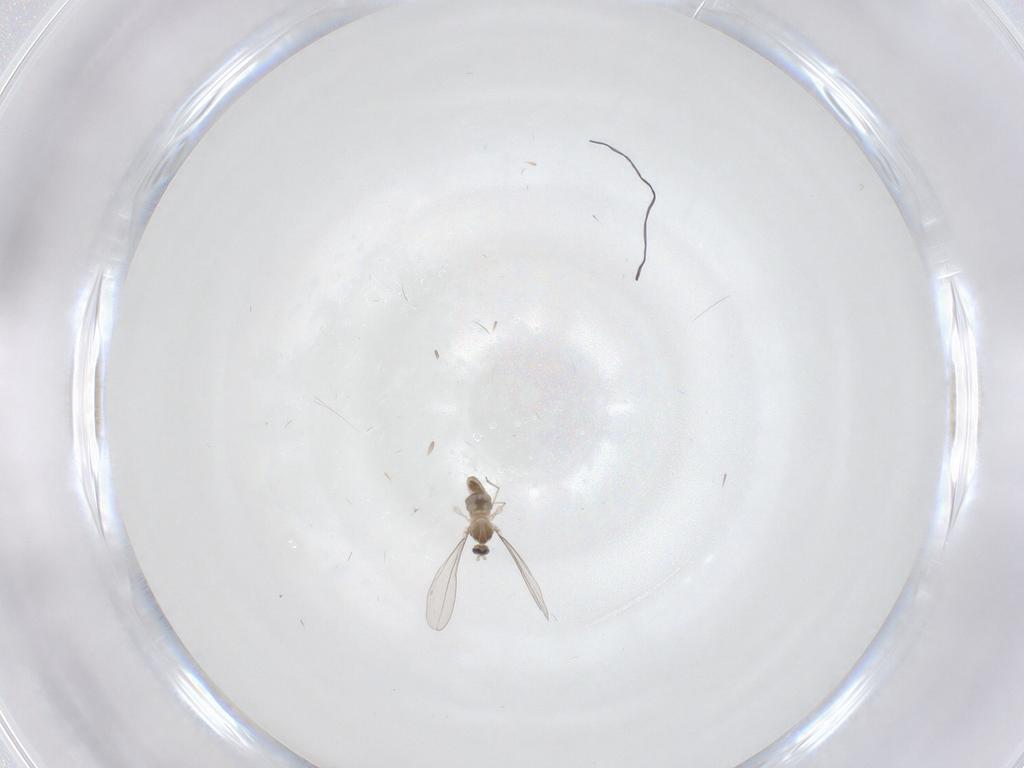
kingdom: Animalia
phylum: Arthropoda
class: Insecta
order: Diptera
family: Cecidomyiidae
